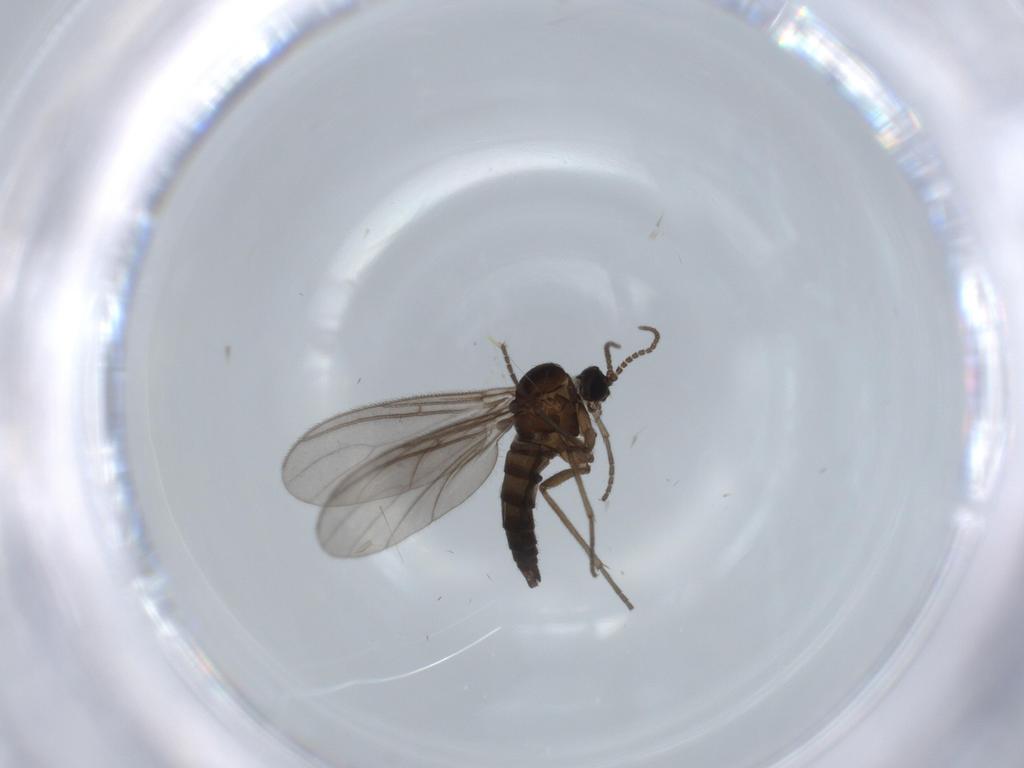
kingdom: Animalia
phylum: Arthropoda
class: Insecta
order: Diptera
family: Sciaridae
